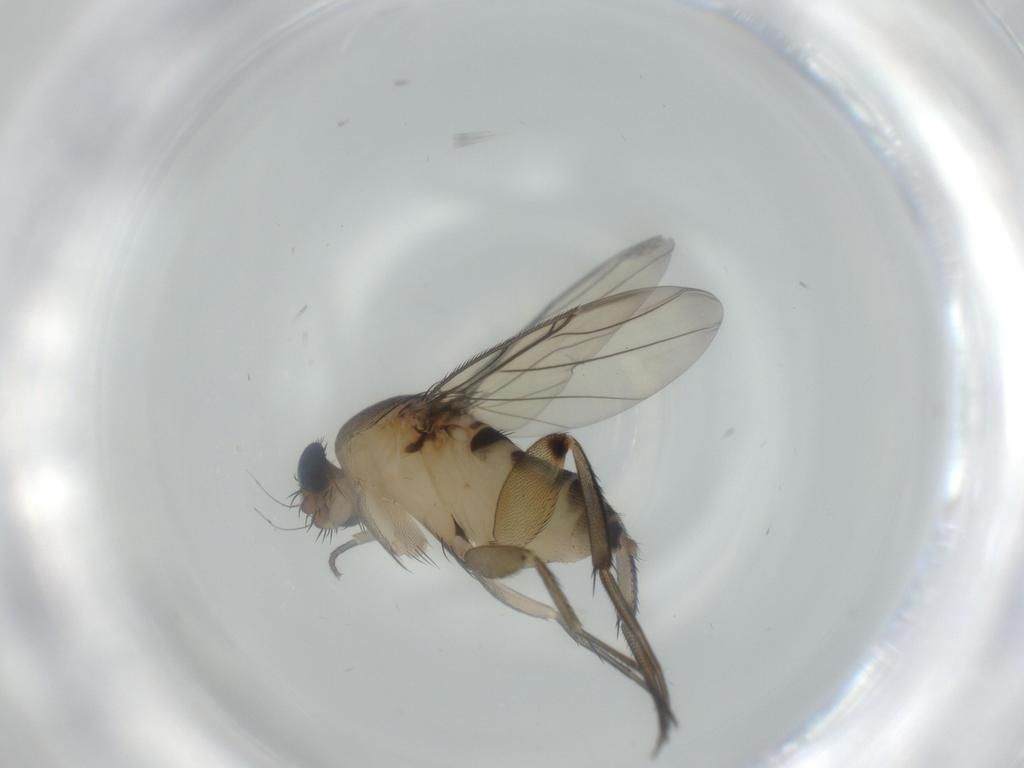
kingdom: Animalia
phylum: Arthropoda
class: Insecta
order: Diptera
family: Phoridae
